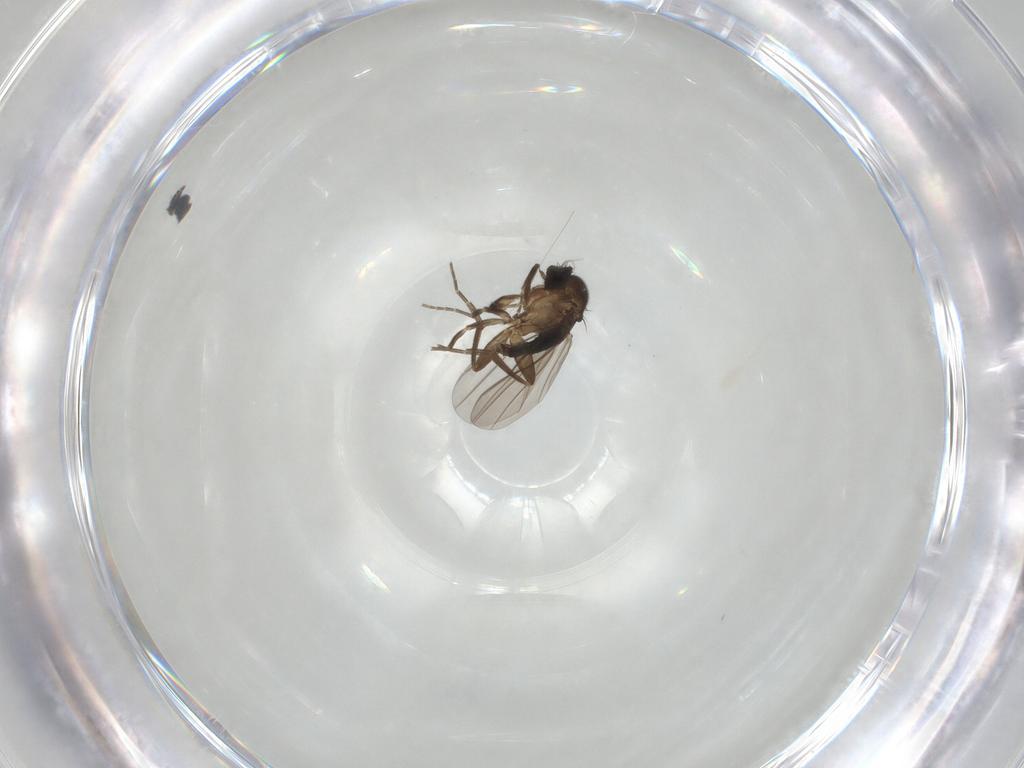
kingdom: Animalia
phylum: Arthropoda
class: Insecta
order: Diptera
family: Phoridae
